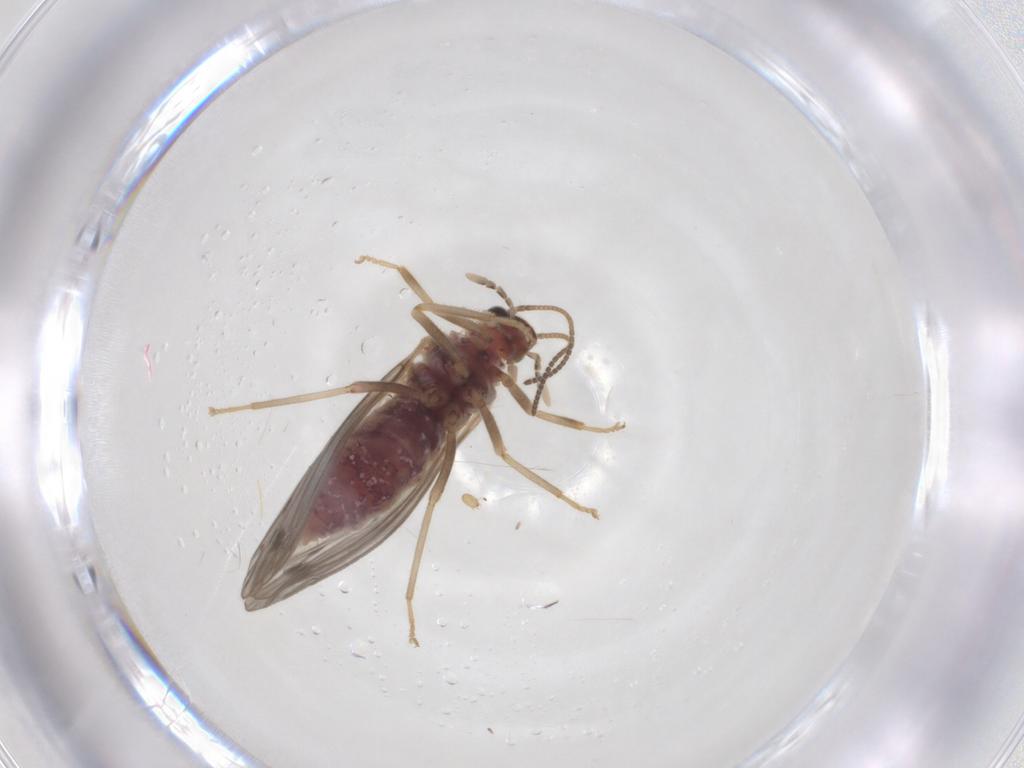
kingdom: Animalia
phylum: Arthropoda
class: Insecta
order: Neuroptera
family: Coniopterygidae
